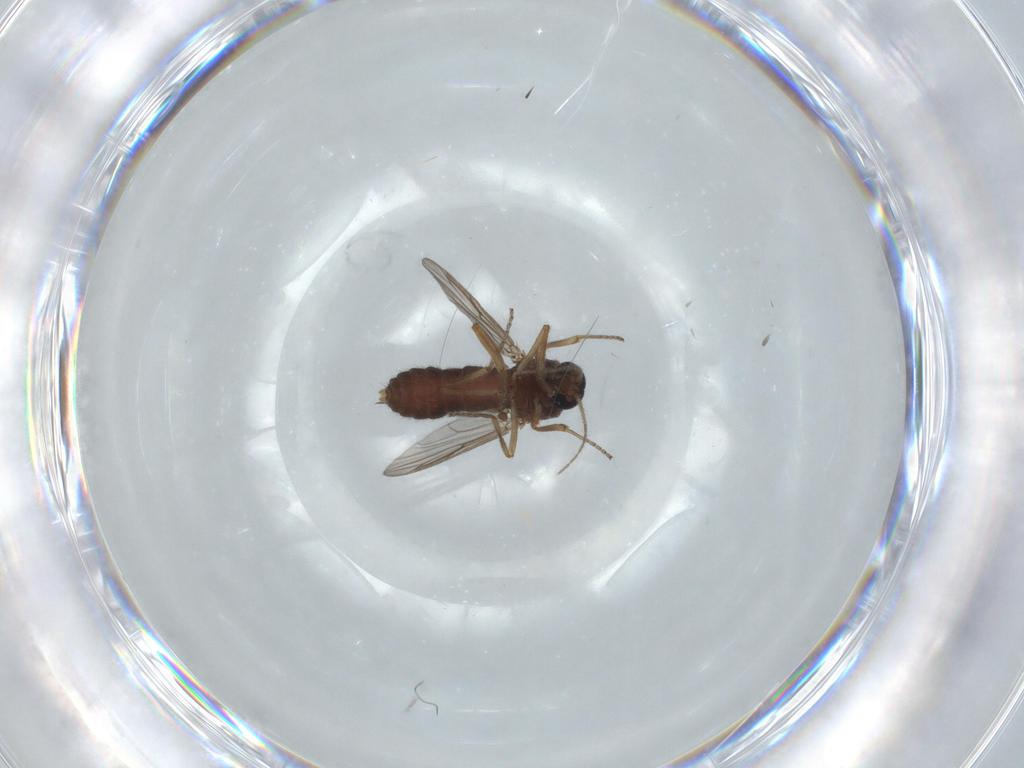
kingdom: Animalia
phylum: Arthropoda
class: Insecta
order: Diptera
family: Ceratopogonidae
